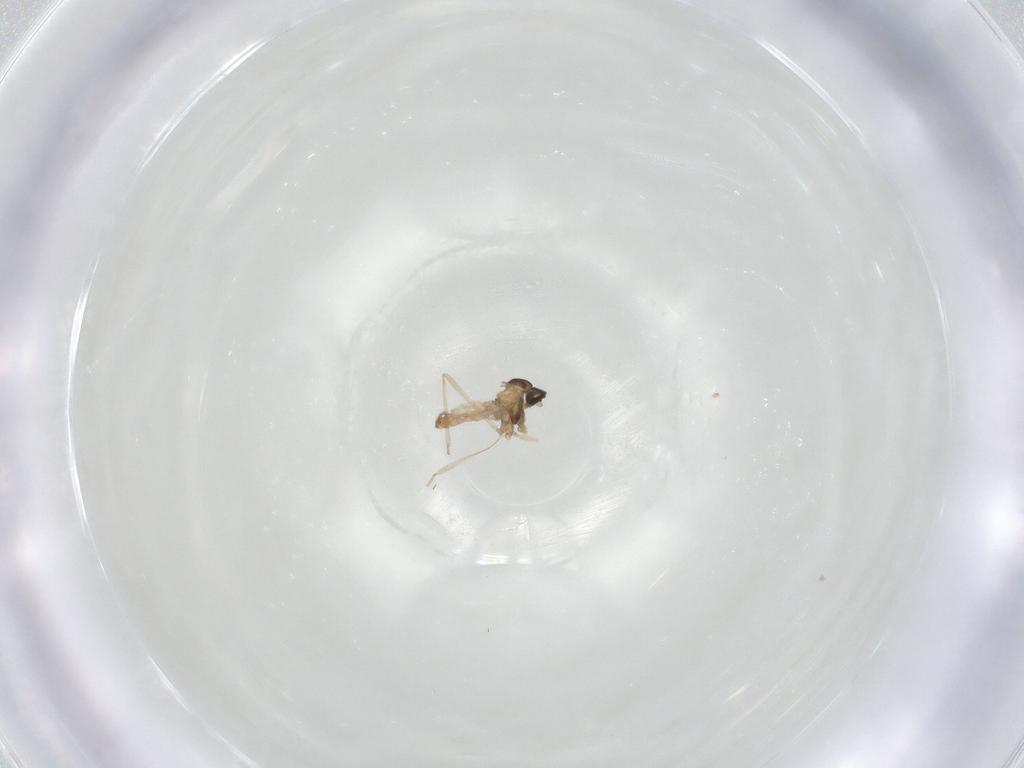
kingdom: Animalia
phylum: Arthropoda
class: Insecta
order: Diptera
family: Cecidomyiidae
